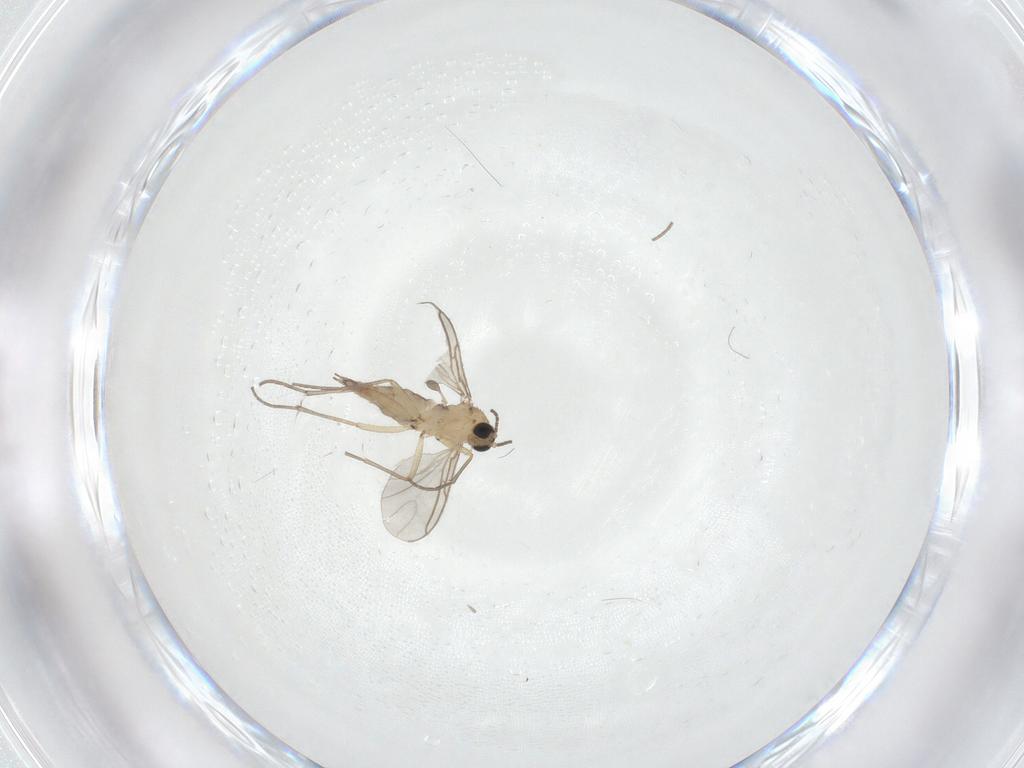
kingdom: Animalia
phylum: Arthropoda
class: Insecta
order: Diptera
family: Sciaridae
